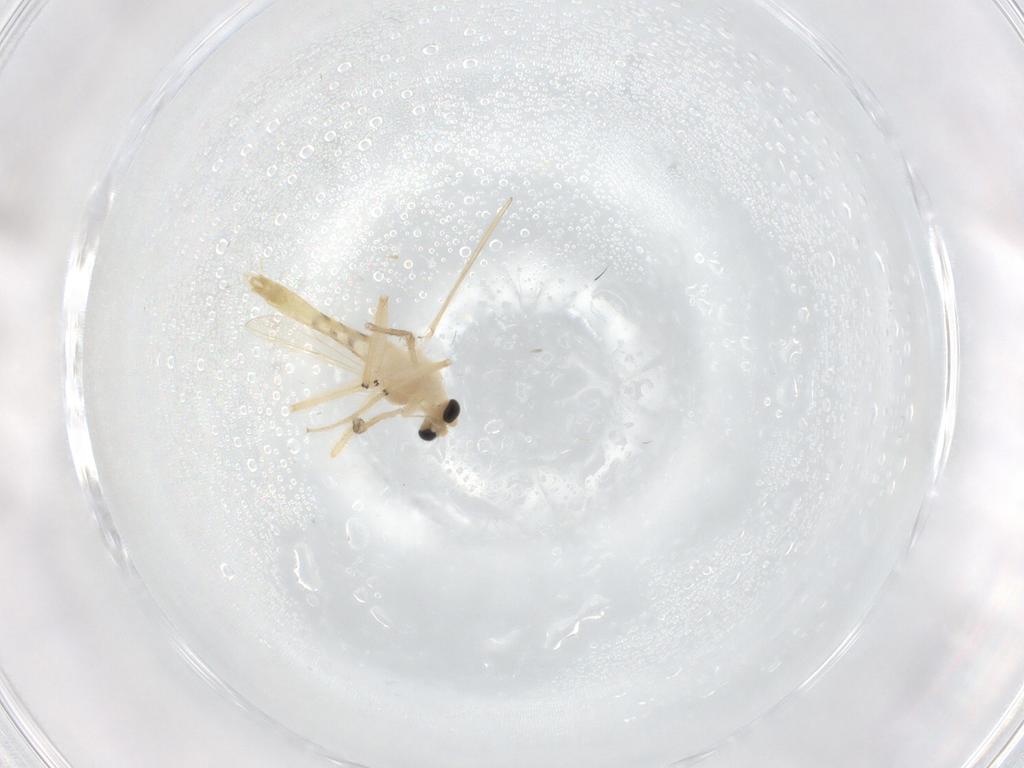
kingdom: Animalia
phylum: Arthropoda
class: Insecta
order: Diptera
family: Chironomidae
